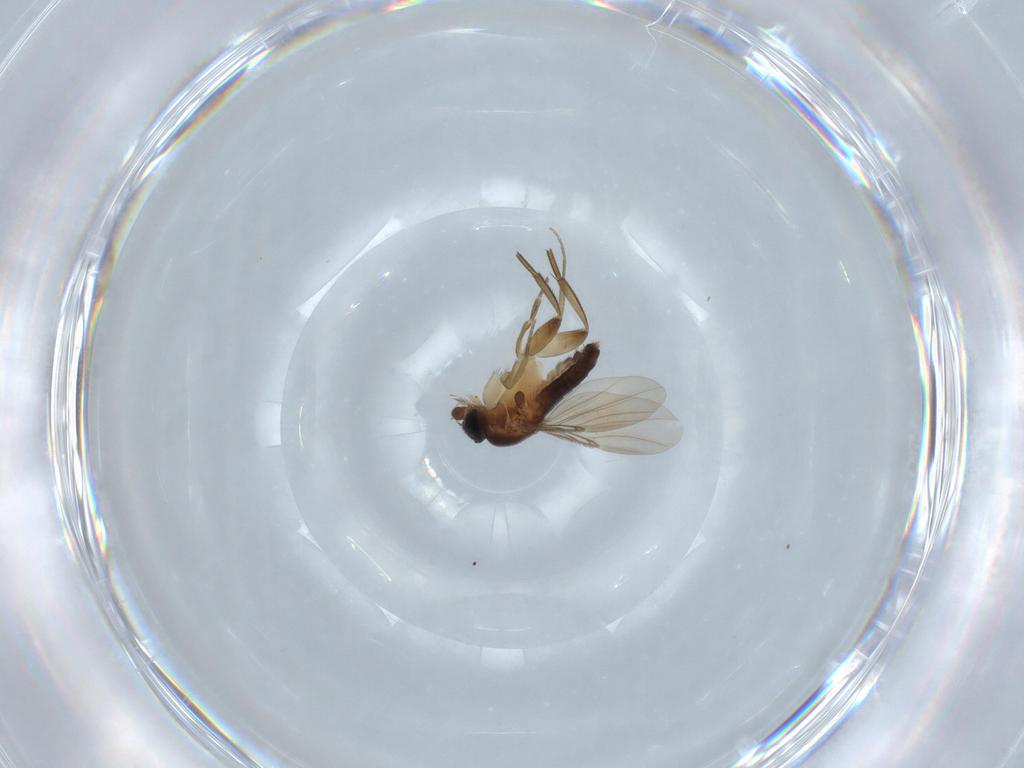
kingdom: Animalia
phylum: Arthropoda
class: Insecta
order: Diptera
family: Phoridae
